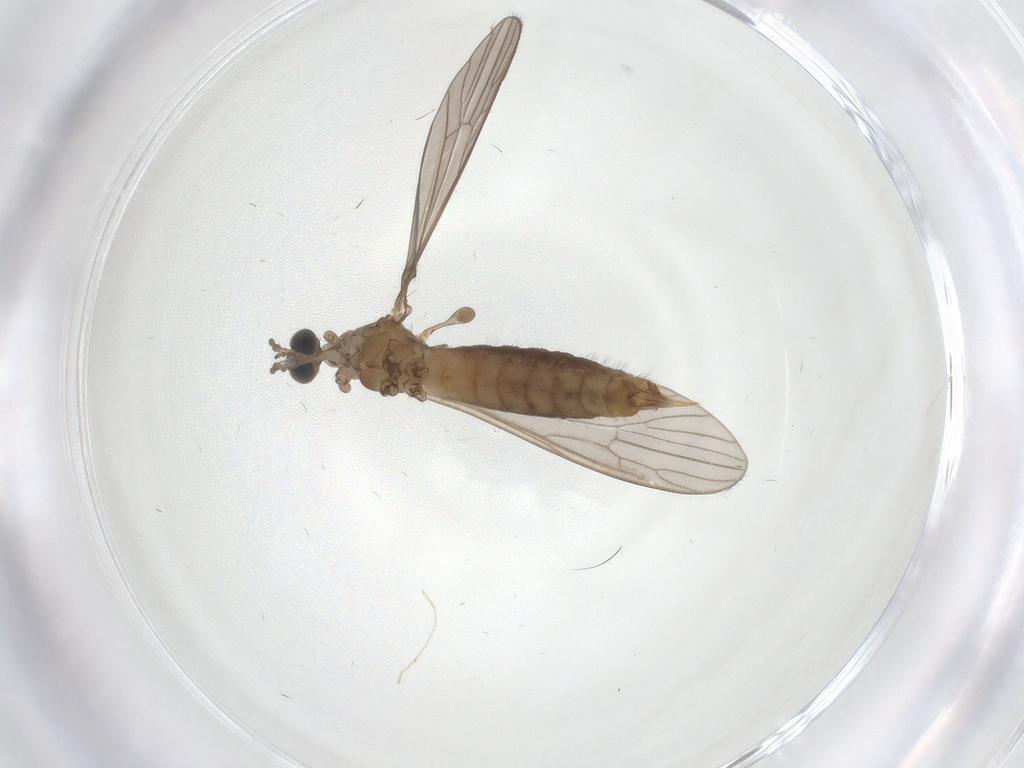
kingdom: Animalia
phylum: Arthropoda
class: Insecta
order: Diptera
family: Limoniidae
